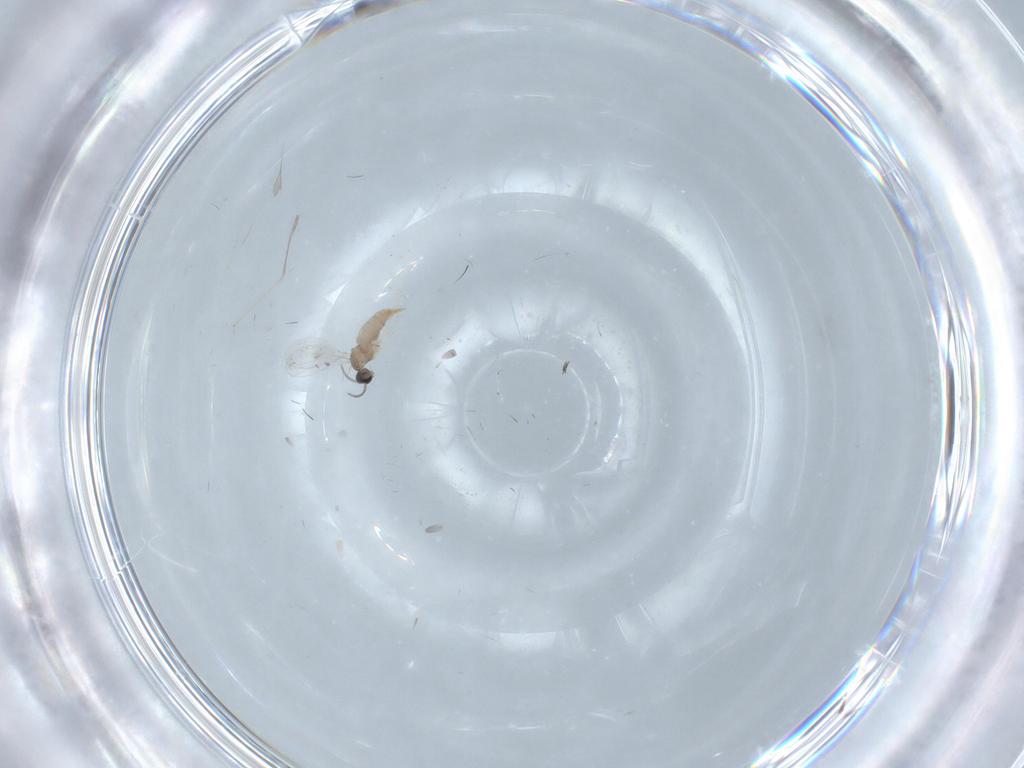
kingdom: Animalia
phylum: Arthropoda
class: Insecta
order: Diptera
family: Cecidomyiidae
